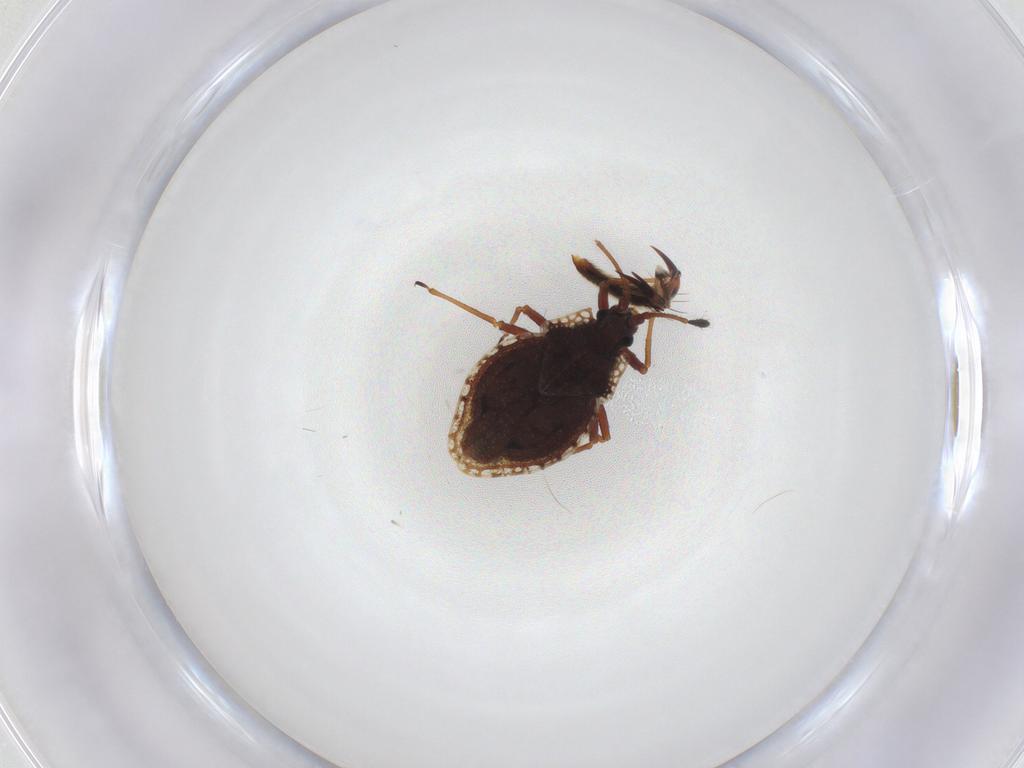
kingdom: Animalia
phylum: Arthropoda
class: Insecta
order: Hemiptera
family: Tingidae
